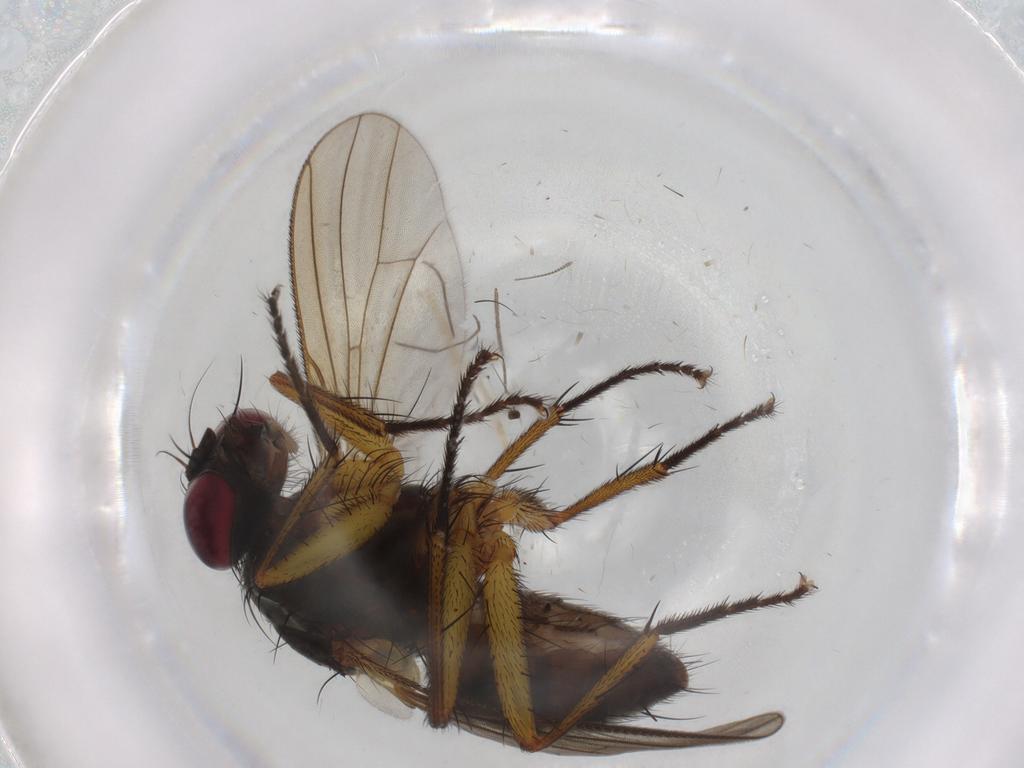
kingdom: Animalia
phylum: Arthropoda
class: Insecta
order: Diptera
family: Muscidae
